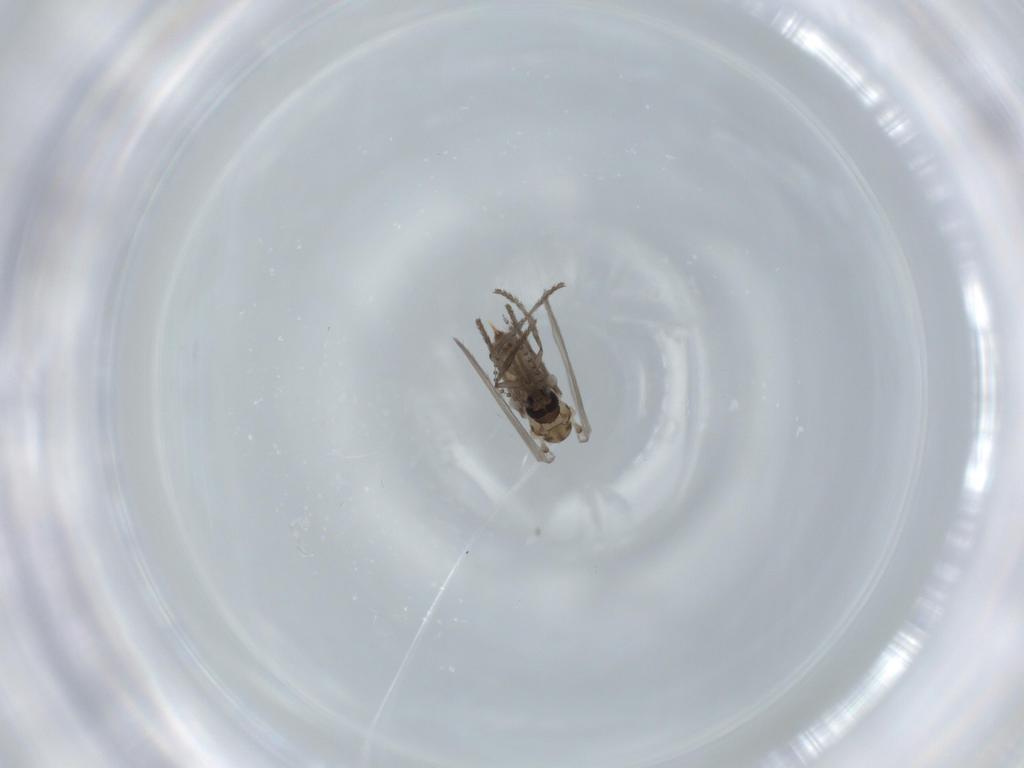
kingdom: Animalia
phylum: Arthropoda
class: Insecta
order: Diptera
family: Psychodidae
